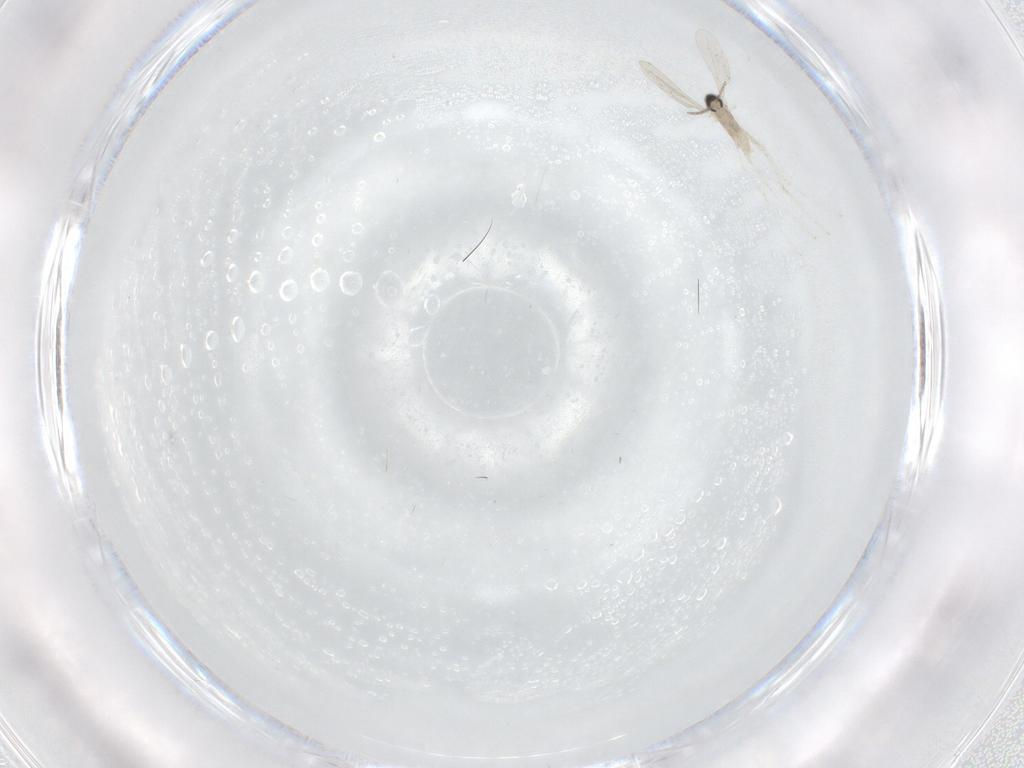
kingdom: Animalia
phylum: Arthropoda
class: Insecta
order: Diptera
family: Ceratopogonidae
